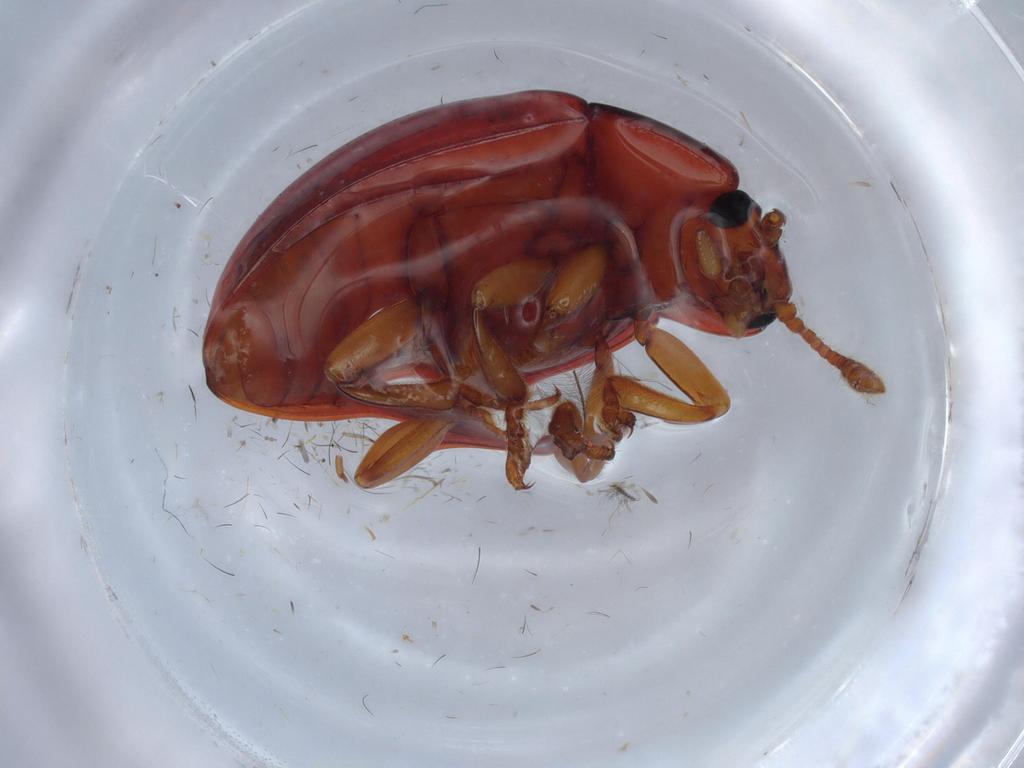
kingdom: Animalia
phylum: Arthropoda
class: Insecta
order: Coleoptera
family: Erotylidae
